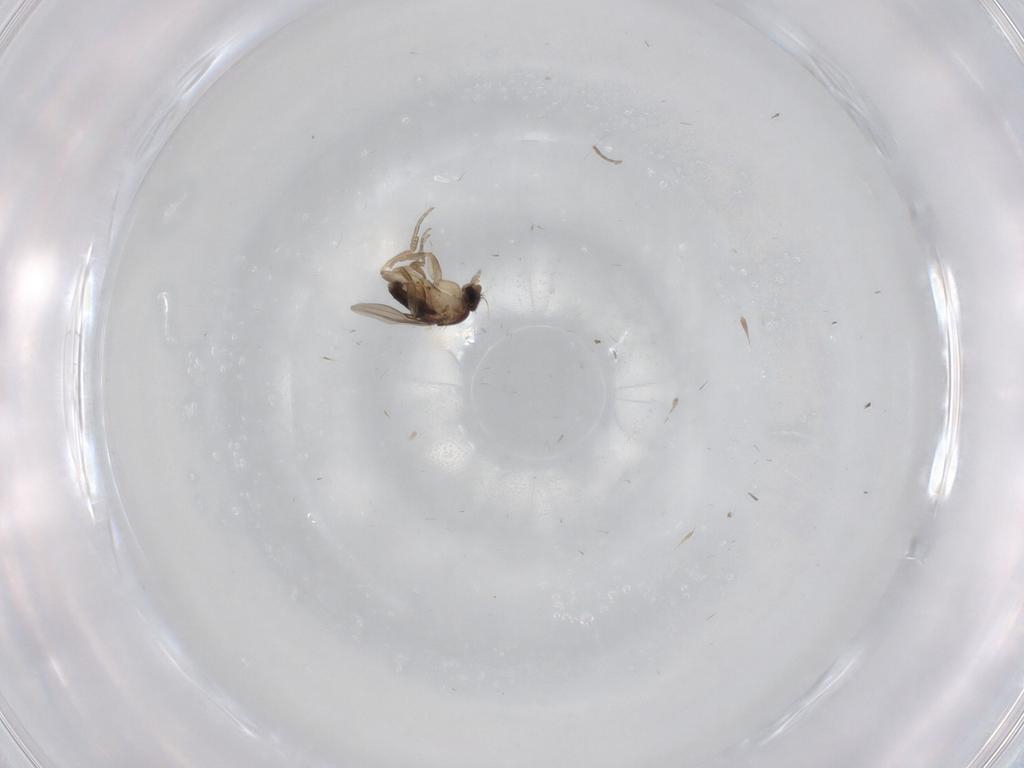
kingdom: Animalia
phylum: Arthropoda
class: Insecta
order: Diptera
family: Phoridae
